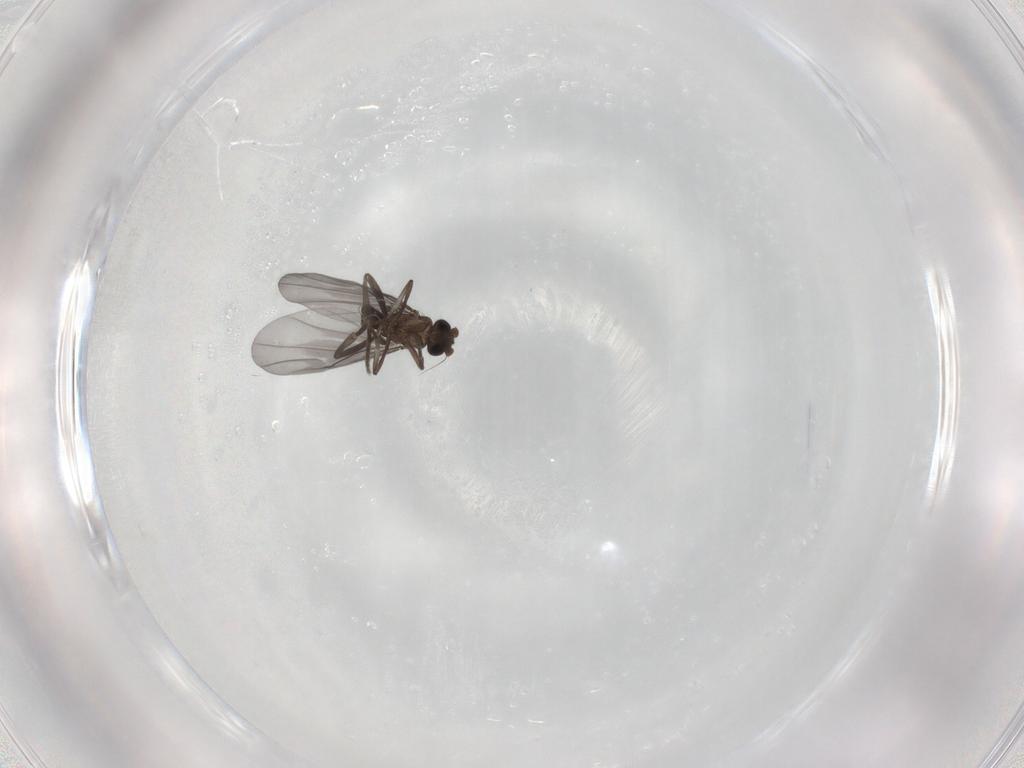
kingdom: Animalia
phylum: Arthropoda
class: Insecta
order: Diptera
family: Phoridae
